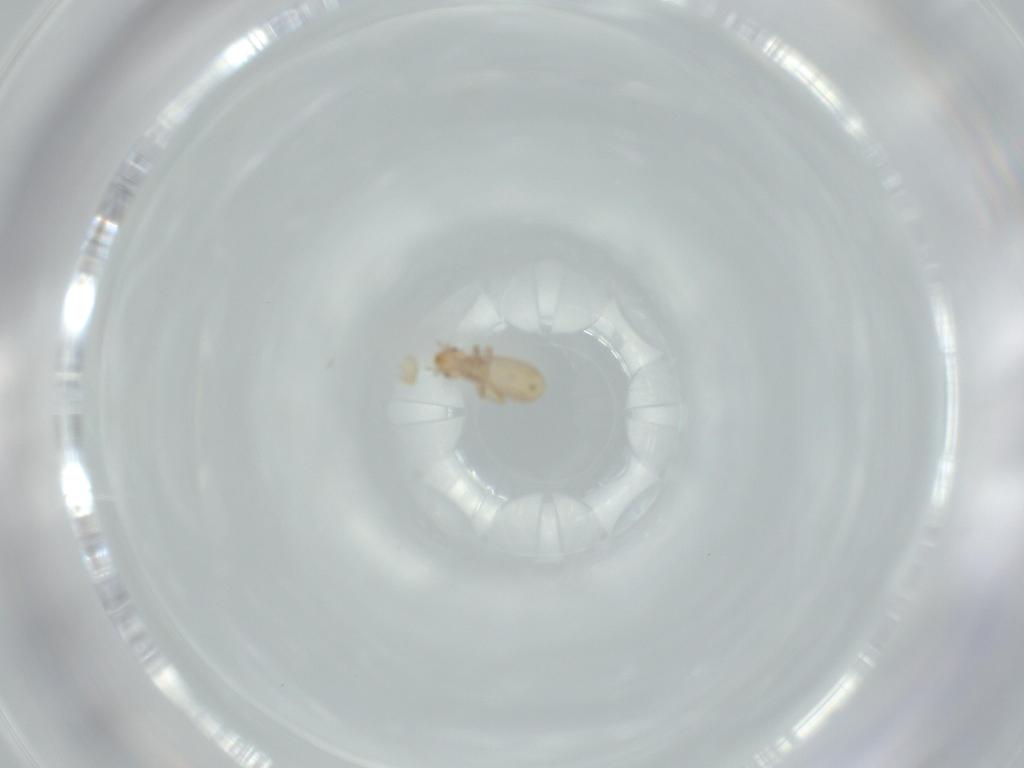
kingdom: Animalia
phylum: Arthropoda
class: Insecta
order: Psocodea
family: Liposcelididae
